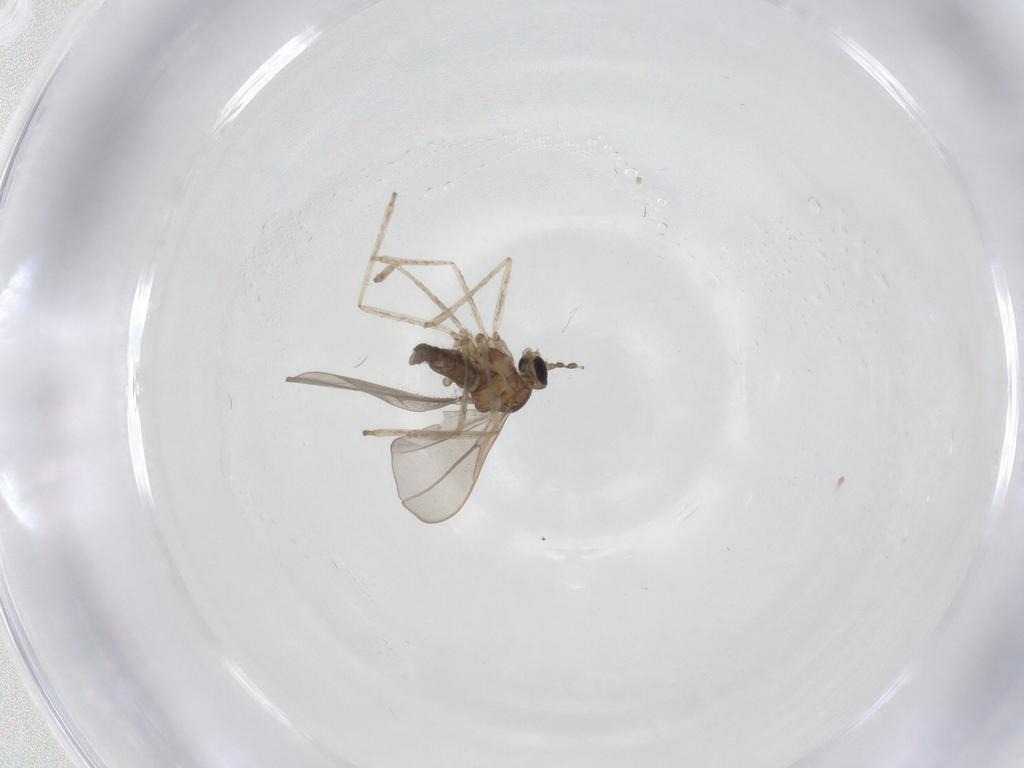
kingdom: Animalia
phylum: Arthropoda
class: Insecta
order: Diptera
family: Cecidomyiidae
